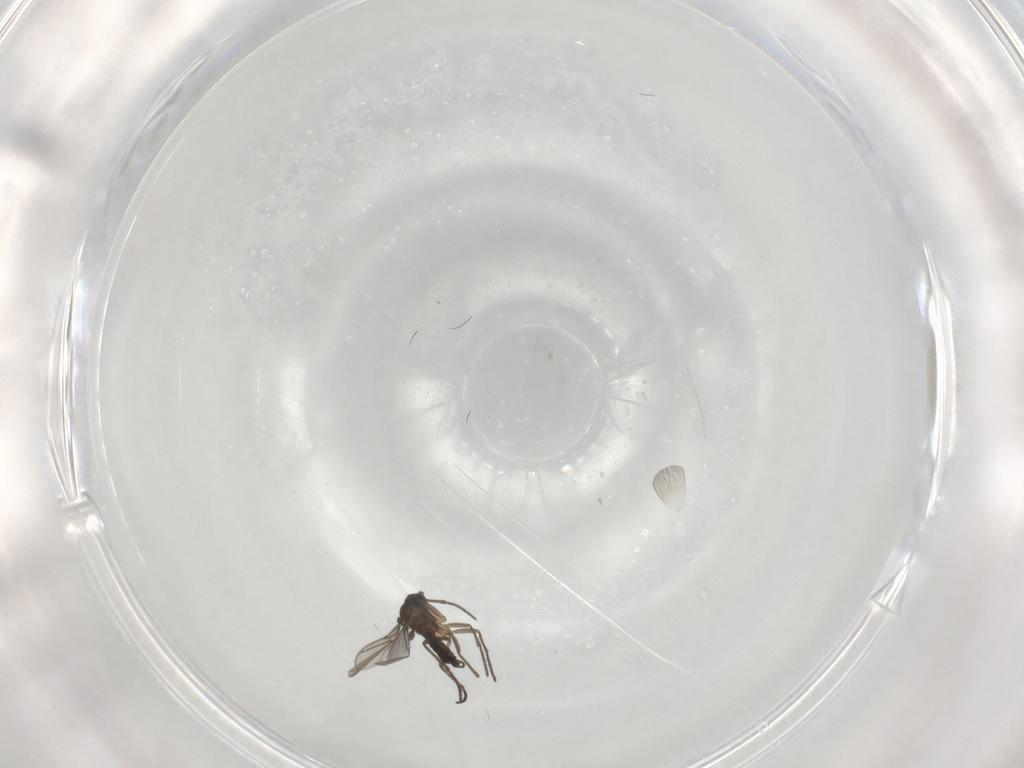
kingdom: Animalia
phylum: Arthropoda
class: Insecta
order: Diptera
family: Sciaridae
